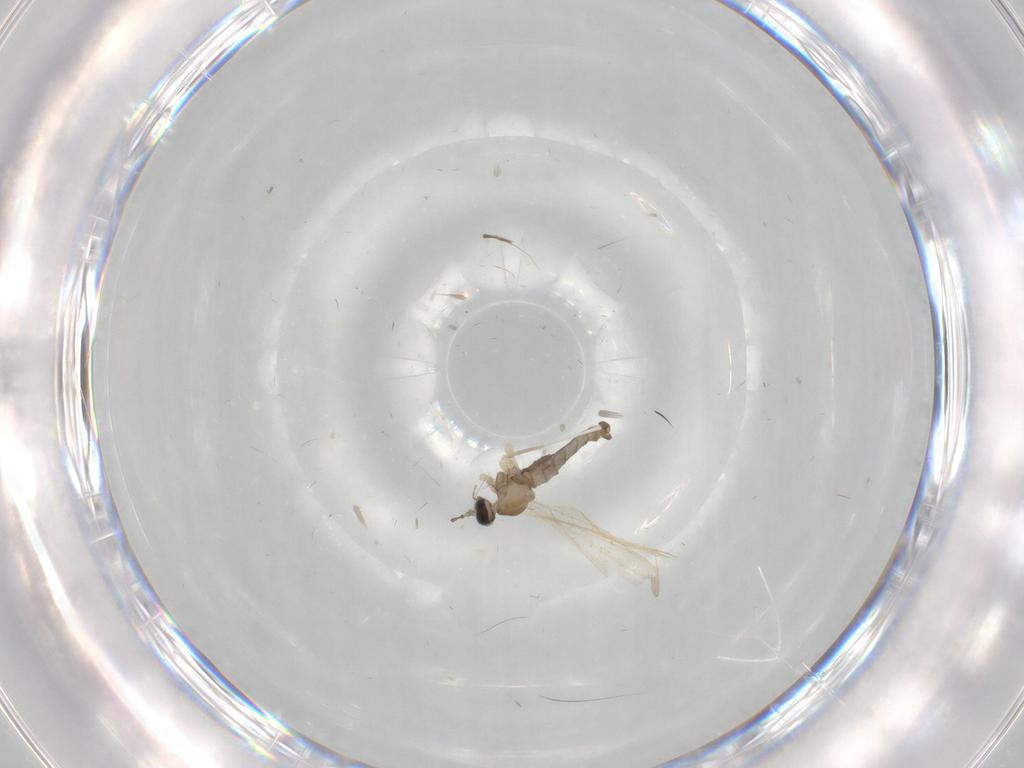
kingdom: Animalia
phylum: Arthropoda
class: Insecta
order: Diptera
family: Cecidomyiidae
